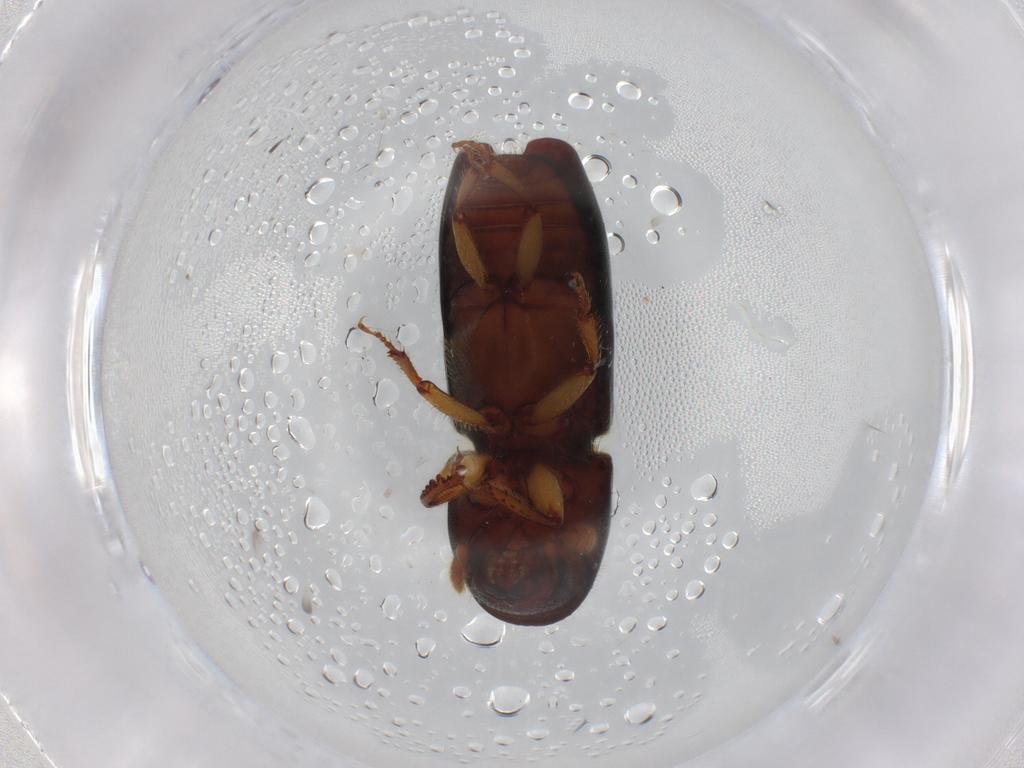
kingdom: Animalia
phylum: Arthropoda
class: Insecta
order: Coleoptera
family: Curculionidae
